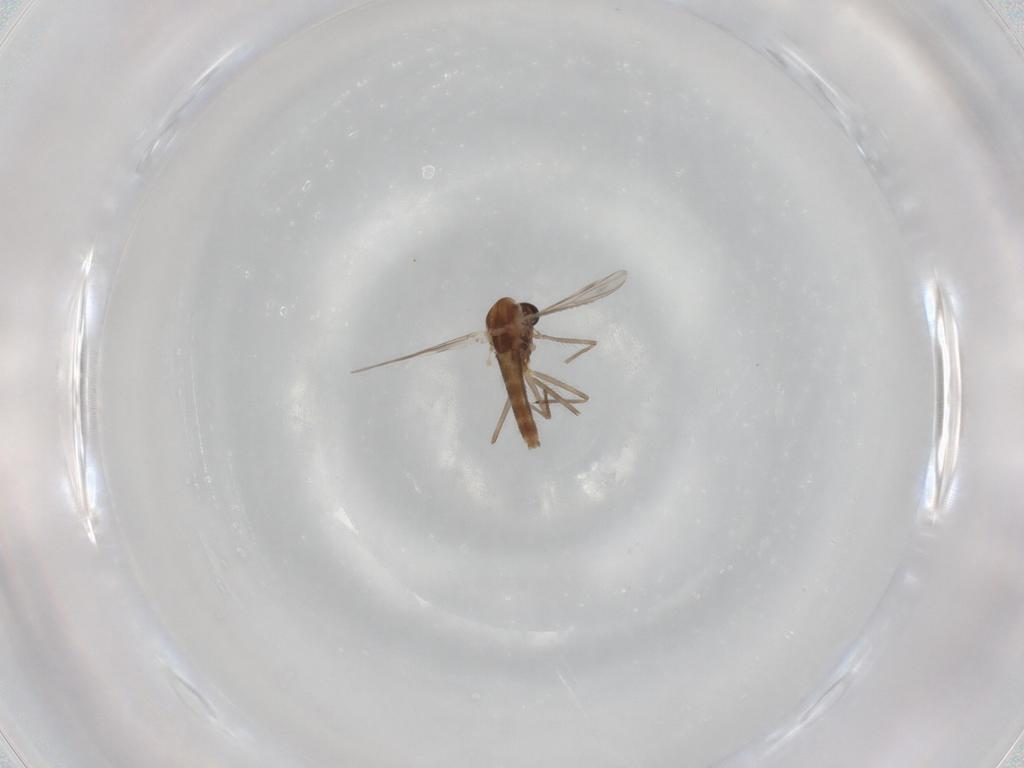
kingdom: Animalia
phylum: Arthropoda
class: Insecta
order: Diptera
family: Chironomidae
